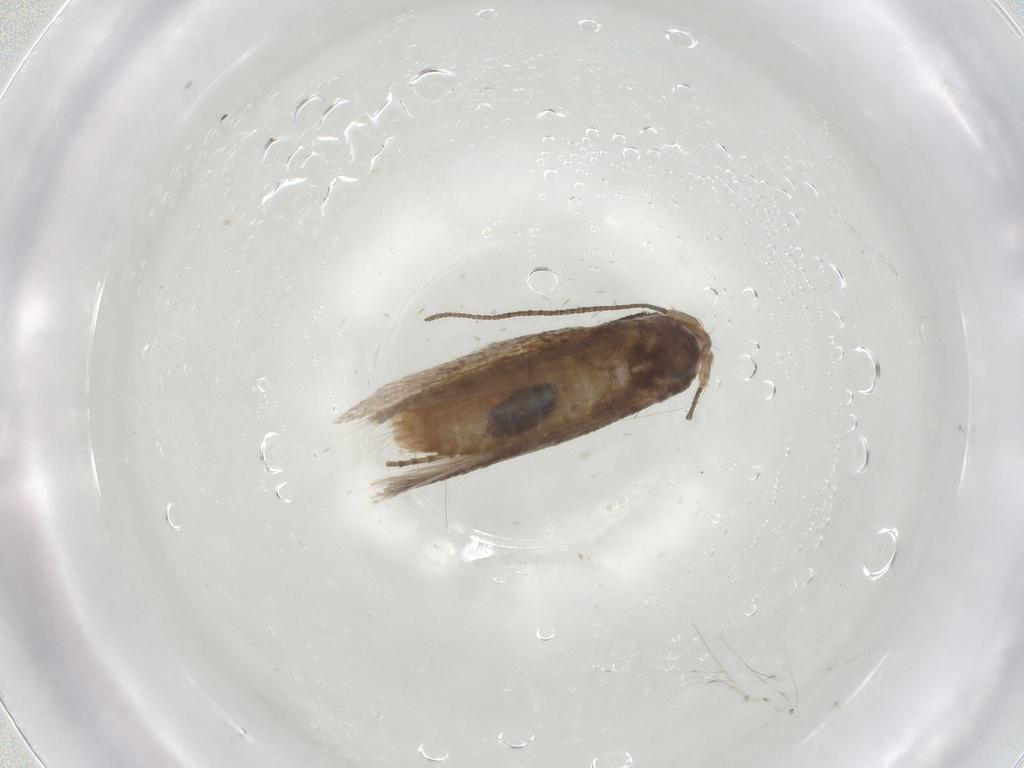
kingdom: Animalia
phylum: Arthropoda
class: Insecta
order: Lepidoptera
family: Bucculatricidae
